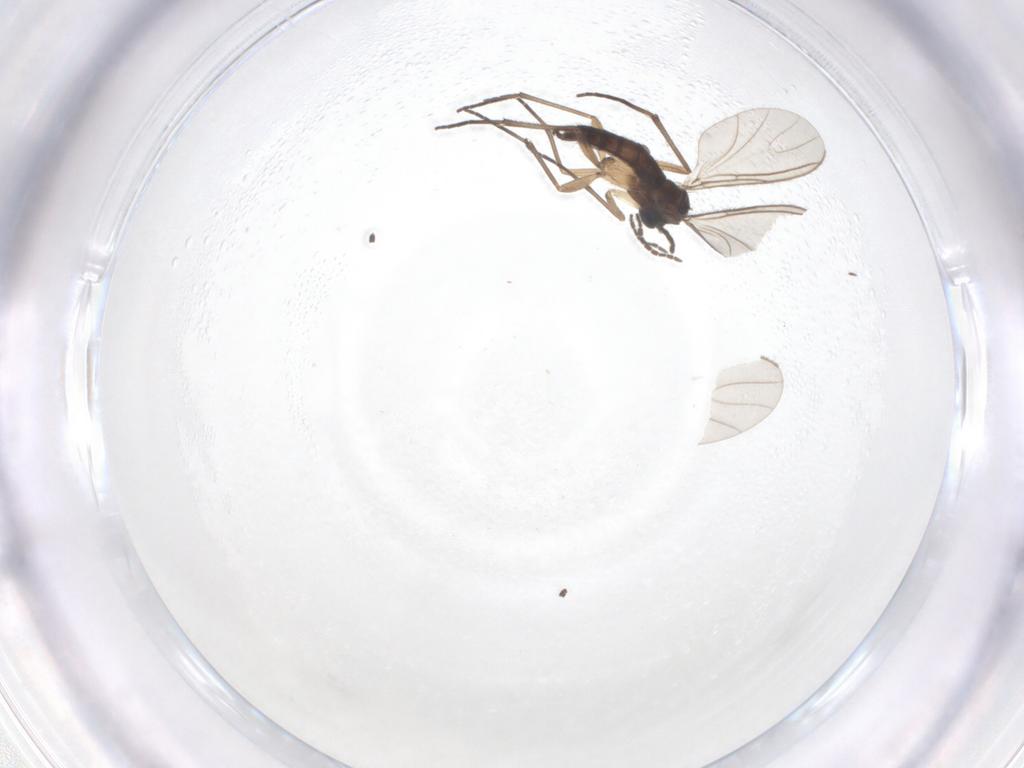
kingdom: Animalia
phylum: Arthropoda
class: Insecta
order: Diptera
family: Sciaridae
